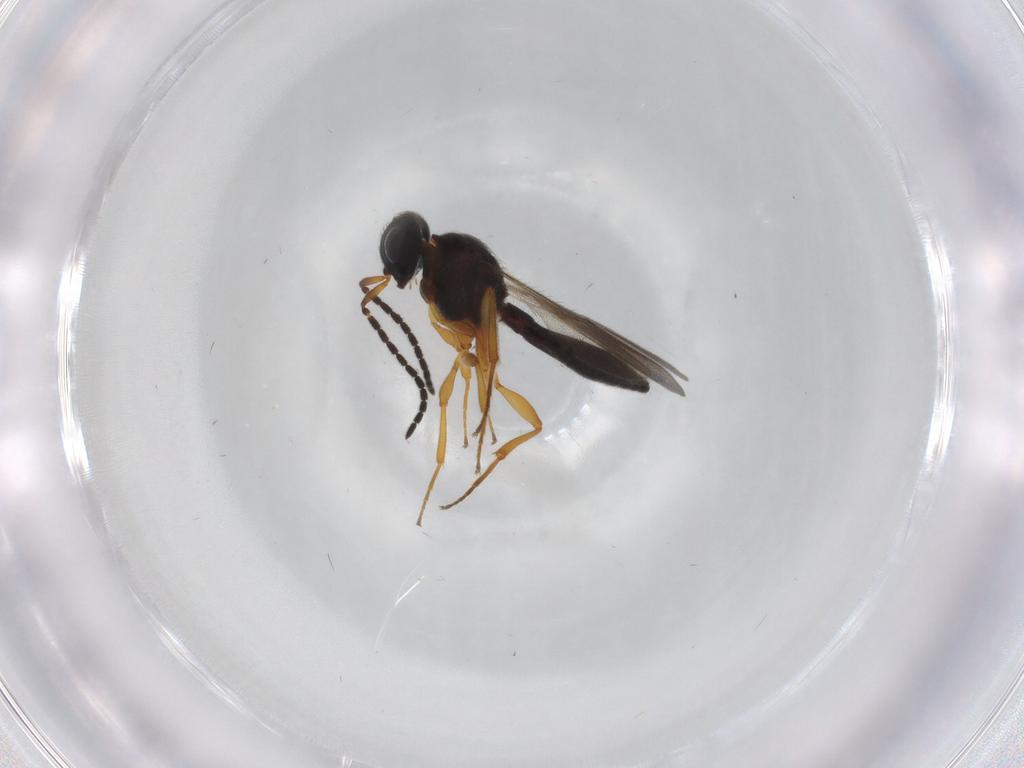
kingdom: Animalia
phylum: Arthropoda
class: Insecta
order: Hymenoptera
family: Scelionidae
